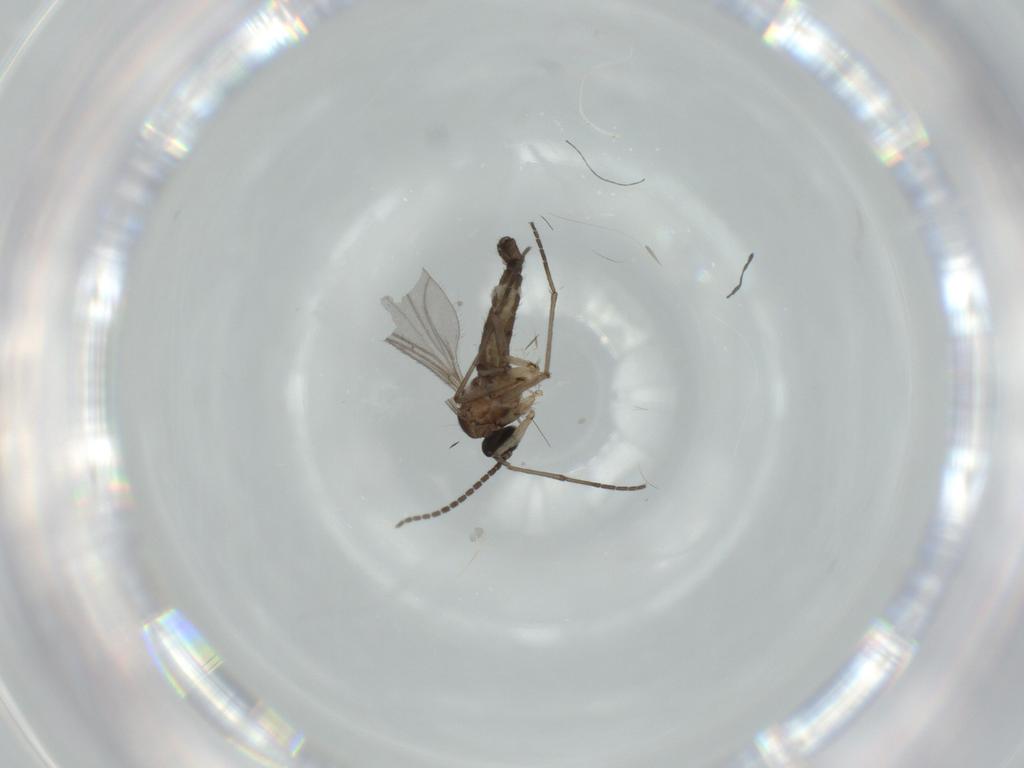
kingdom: Animalia
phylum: Arthropoda
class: Insecta
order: Diptera
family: Sciaridae
